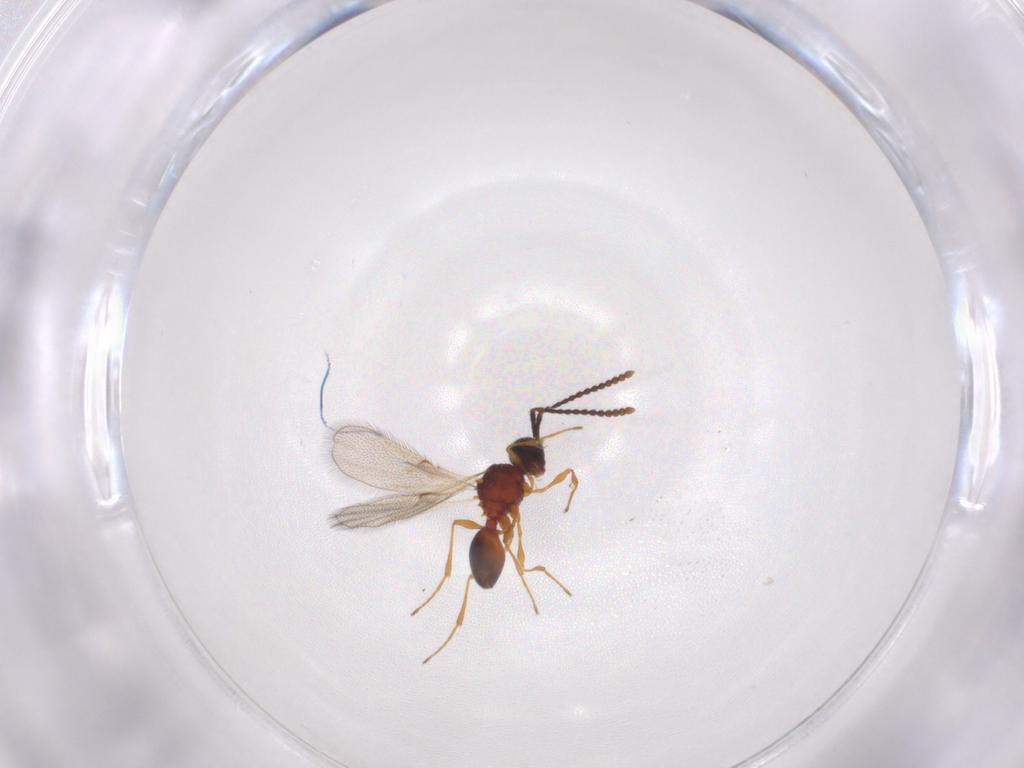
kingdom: Animalia
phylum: Arthropoda
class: Insecta
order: Hymenoptera
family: Diapriidae
